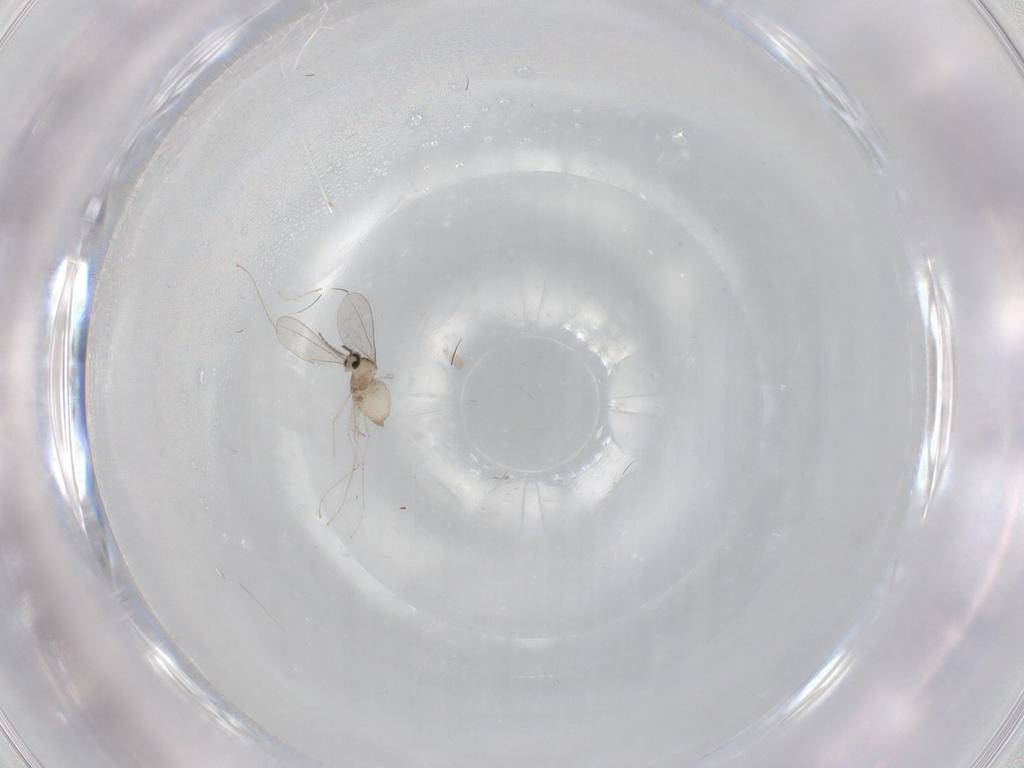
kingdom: Animalia
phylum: Arthropoda
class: Insecta
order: Diptera
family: Cecidomyiidae
